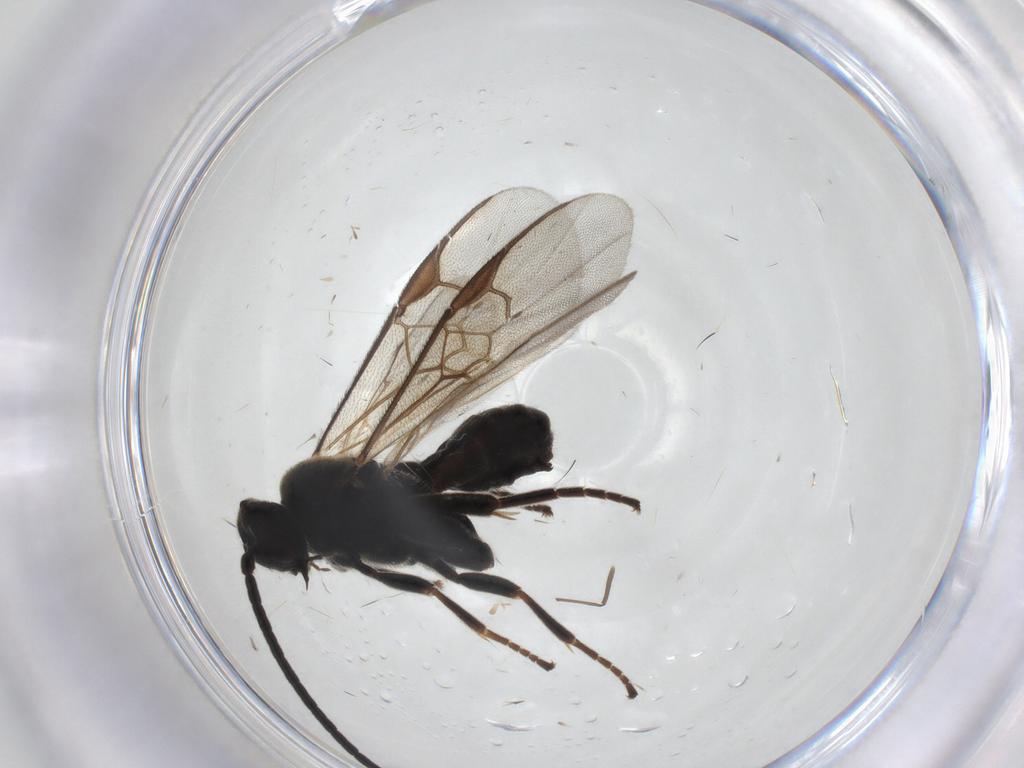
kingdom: Animalia
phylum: Arthropoda
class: Insecta
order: Hymenoptera
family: Braconidae
